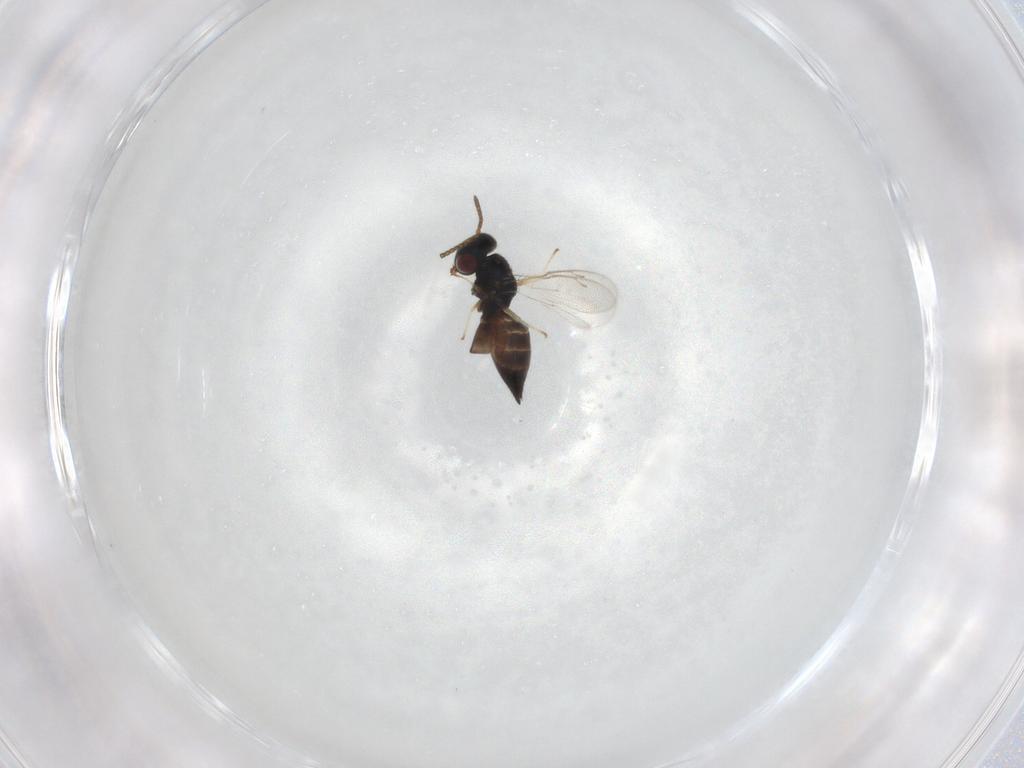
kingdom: Animalia
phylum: Arthropoda
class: Insecta
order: Hymenoptera
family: Pteromalidae
